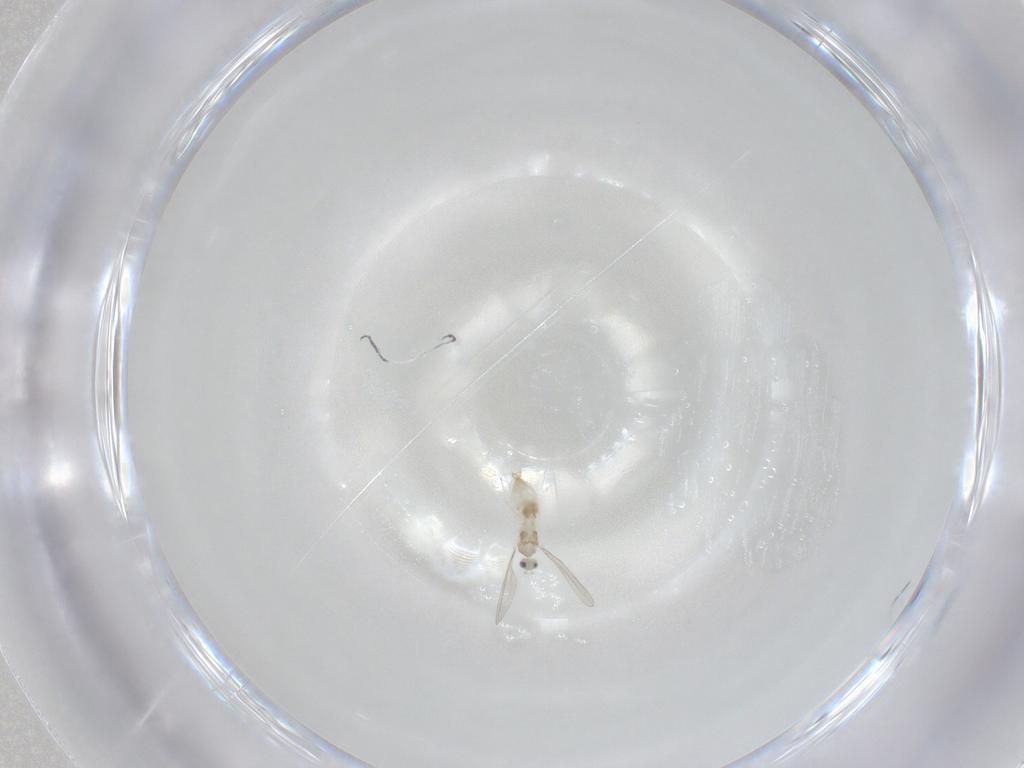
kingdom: Animalia
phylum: Arthropoda
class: Insecta
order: Diptera
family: Cecidomyiidae
